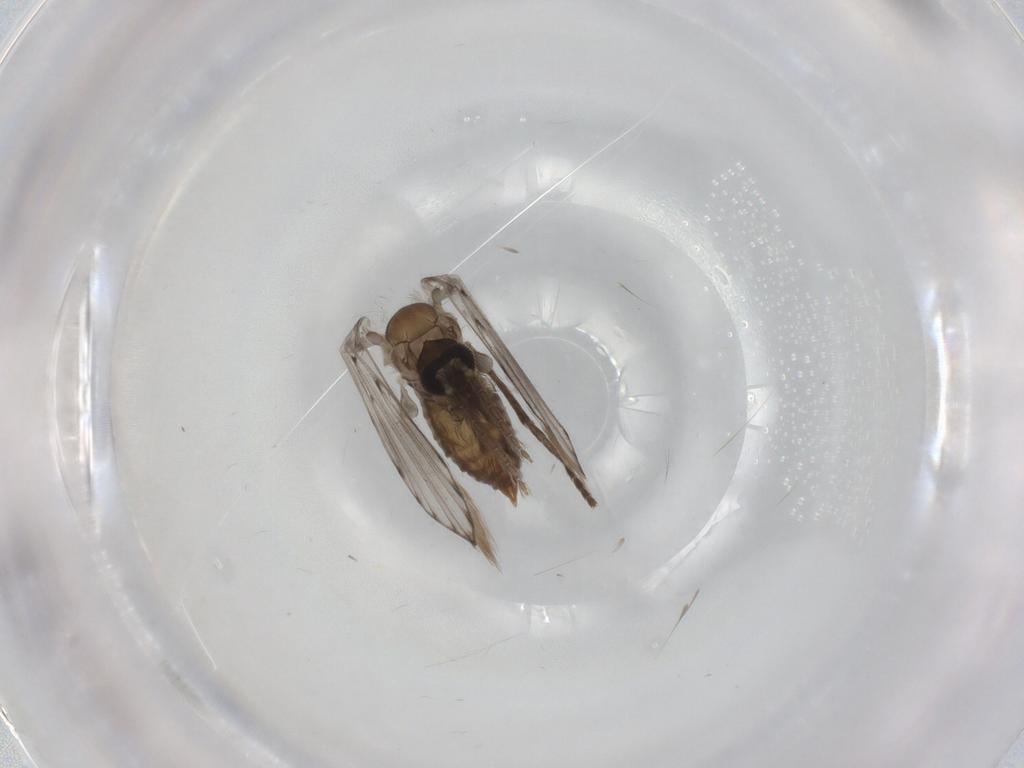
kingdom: Animalia
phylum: Arthropoda
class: Insecta
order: Diptera
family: Psychodidae
